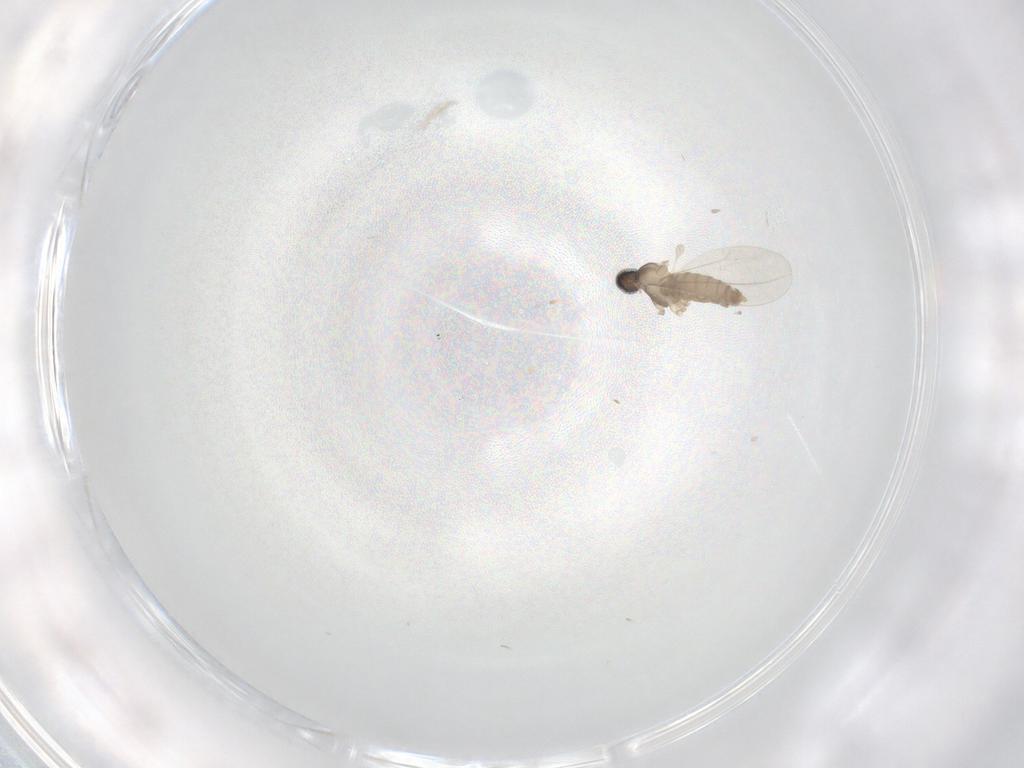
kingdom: Animalia
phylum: Arthropoda
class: Insecta
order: Diptera
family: Cecidomyiidae
